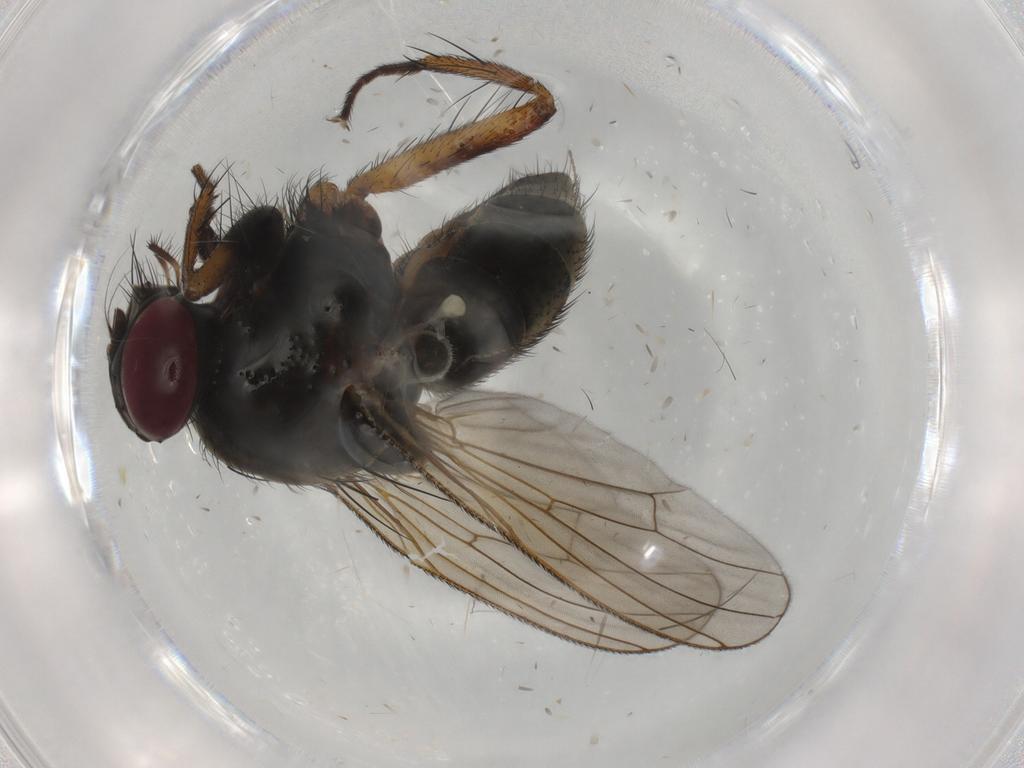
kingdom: Animalia
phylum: Arthropoda
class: Insecta
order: Diptera
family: Muscidae
